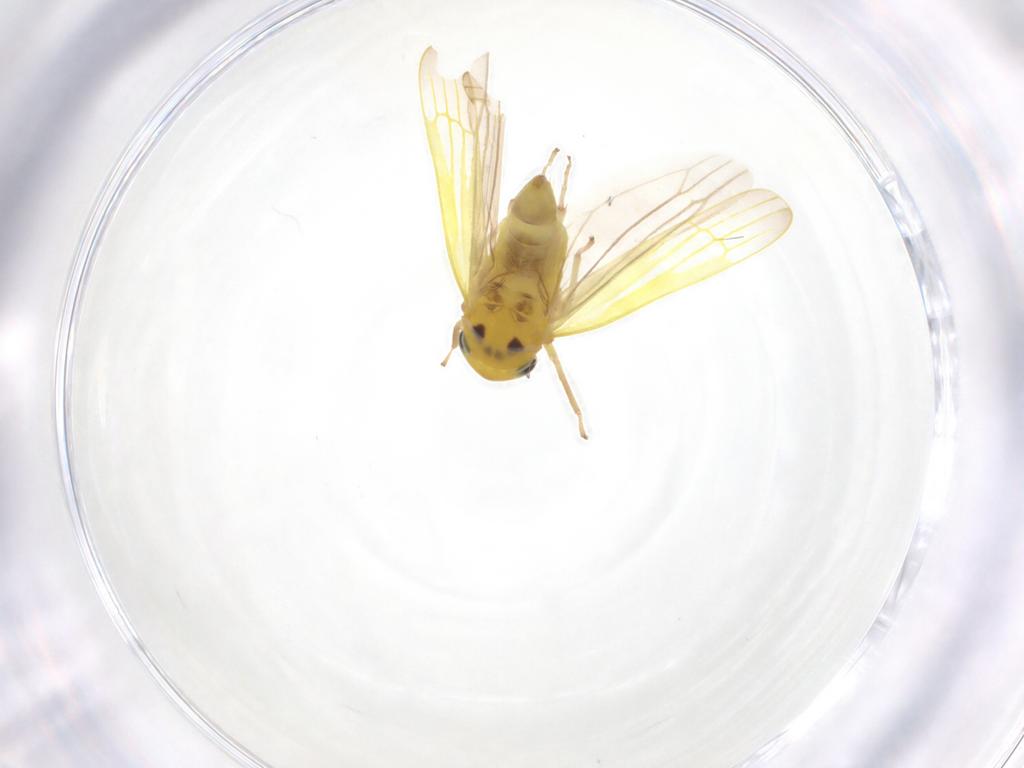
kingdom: Animalia
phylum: Arthropoda
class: Insecta
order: Hemiptera
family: Cicadellidae
